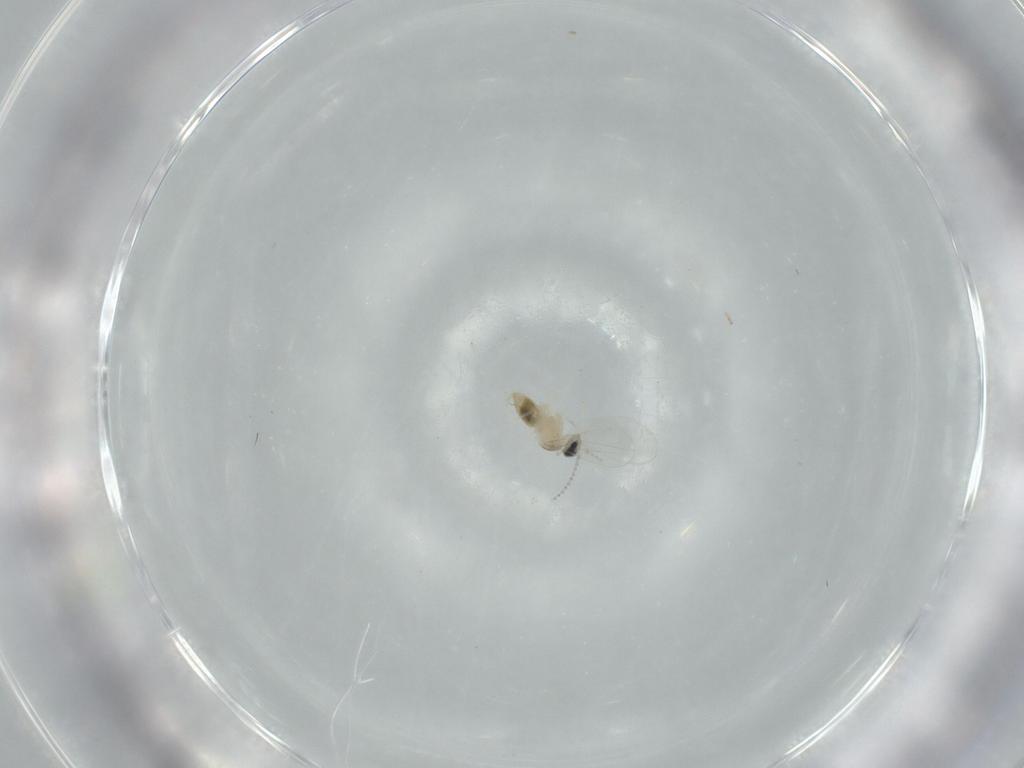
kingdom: Animalia
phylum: Arthropoda
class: Insecta
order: Diptera
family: Cecidomyiidae
